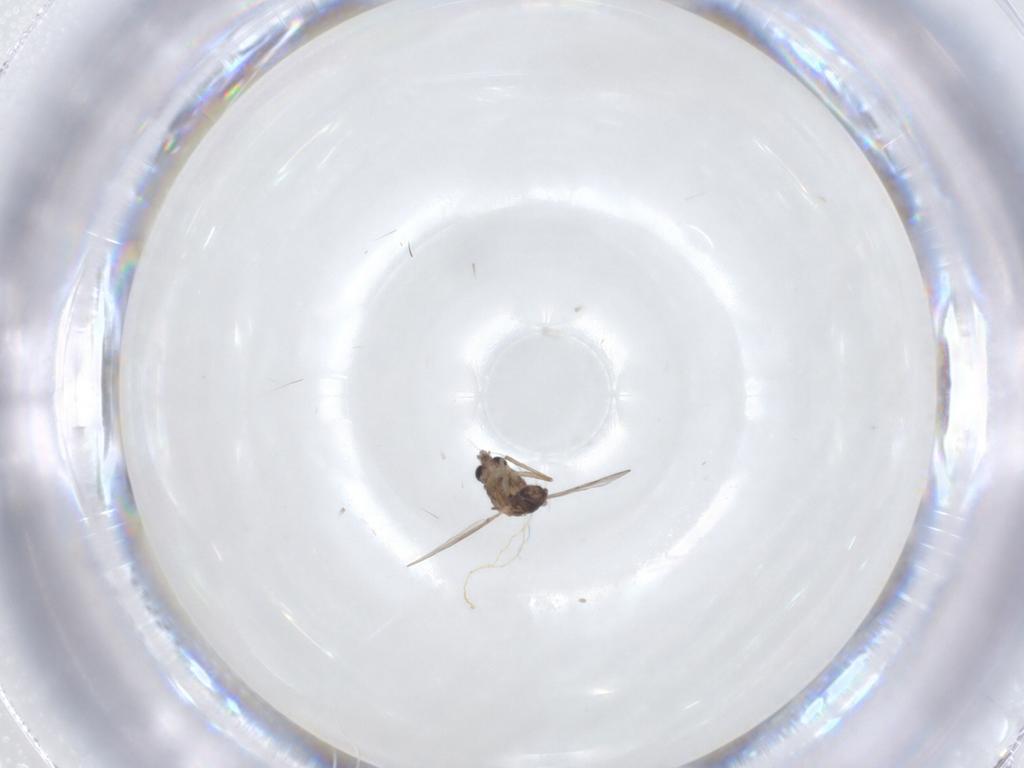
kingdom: Animalia
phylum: Arthropoda
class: Insecta
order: Diptera
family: Chironomidae
